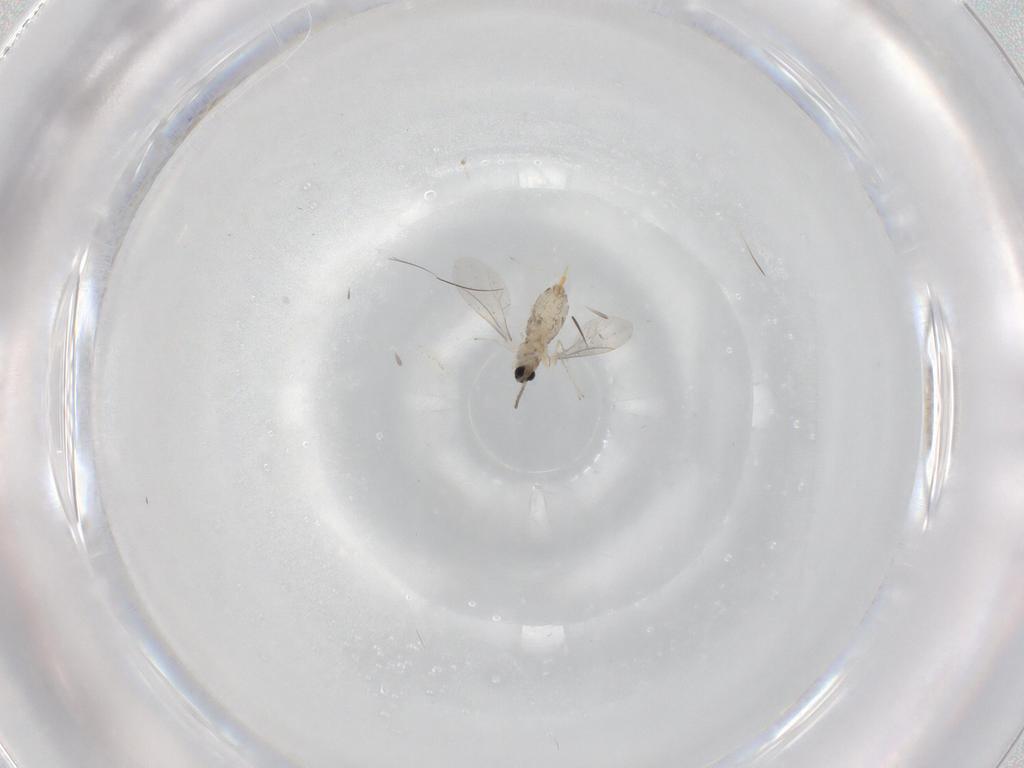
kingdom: Animalia
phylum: Arthropoda
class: Insecta
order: Diptera
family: Cecidomyiidae
